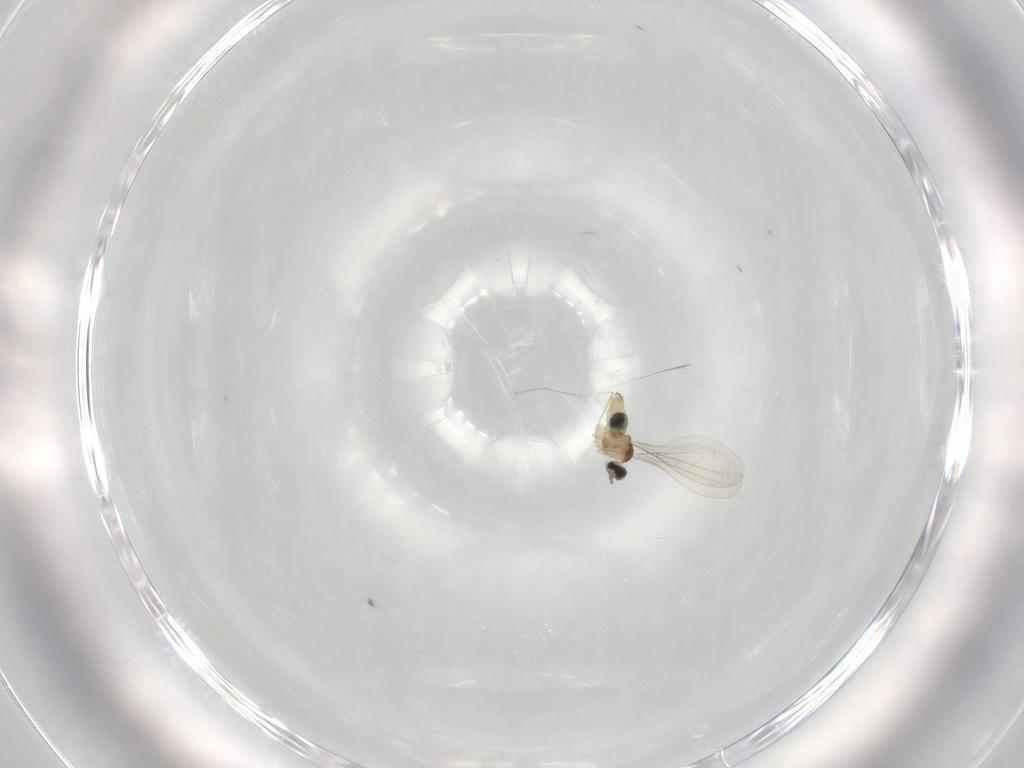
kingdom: Animalia
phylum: Arthropoda
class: Insecta
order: Diptera
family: Cecidomyiidae
